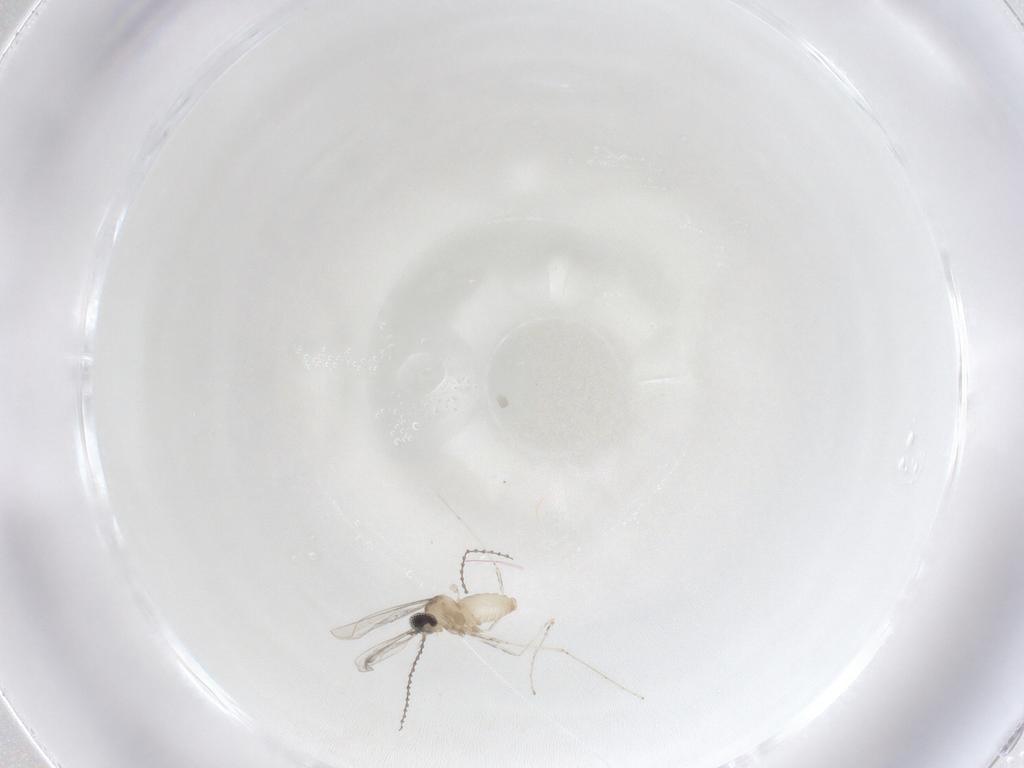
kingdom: Animalia
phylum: Arthropoda
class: Insecta
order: Diptera
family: Cecidomyiidae
